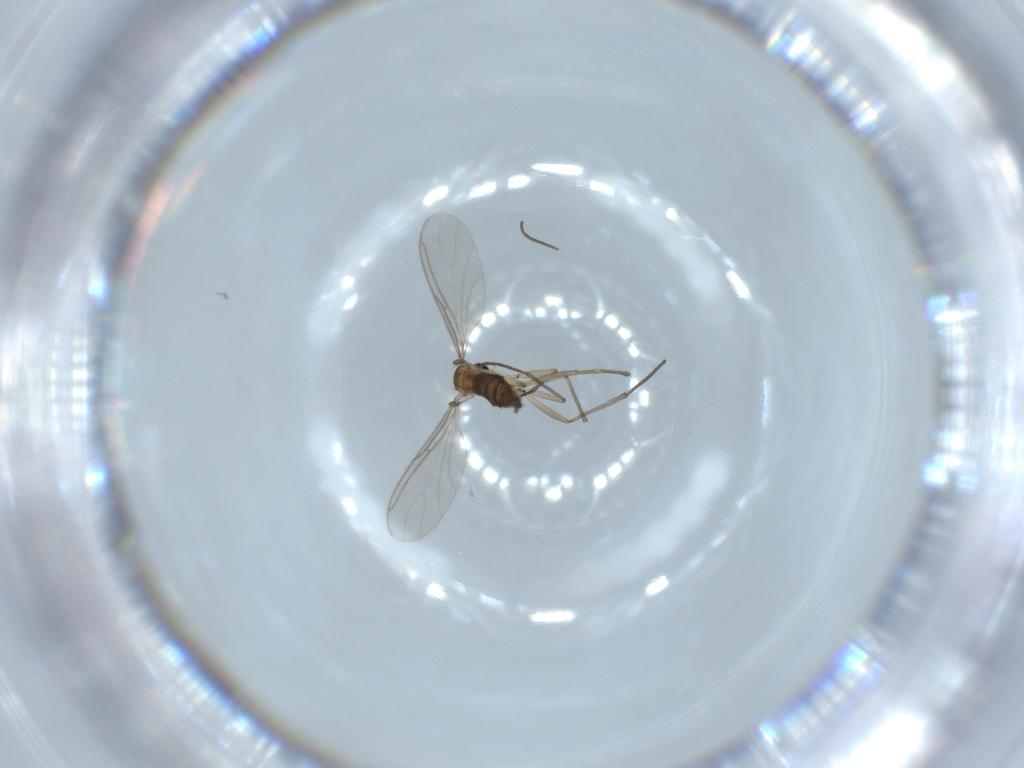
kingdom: Animalia
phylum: Arthropoda
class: Insecta
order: Diptera
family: Sciaridae
